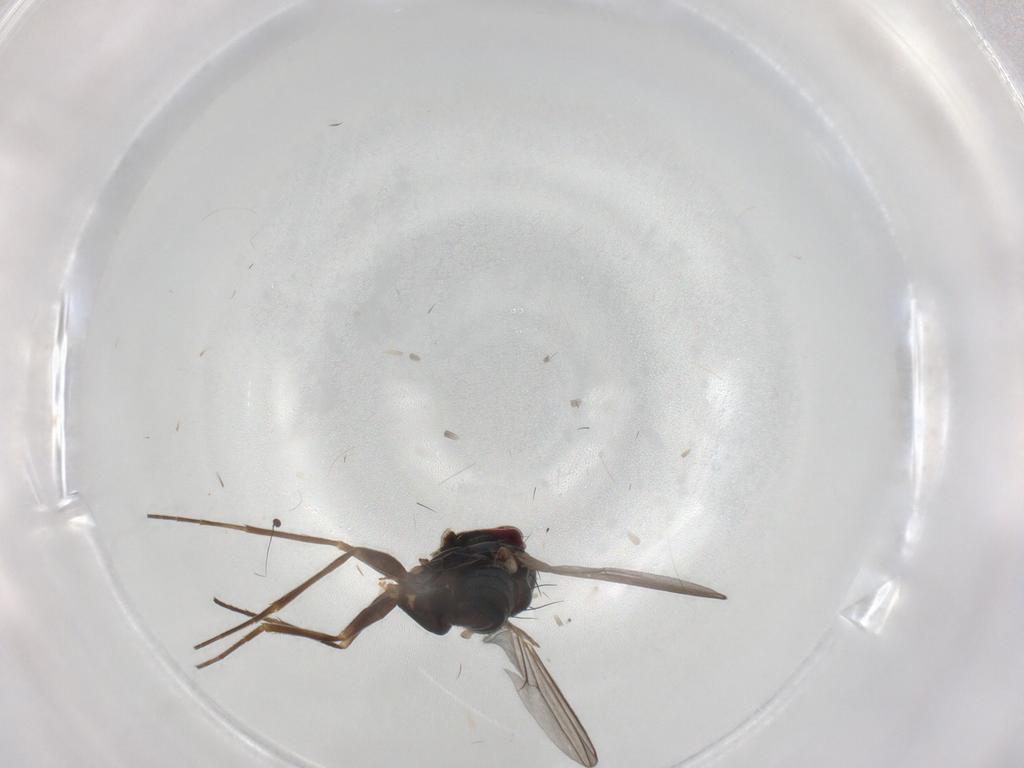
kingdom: Animalia
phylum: Arthropoda
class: Insecta
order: Diptera
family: Dolichopodidae
